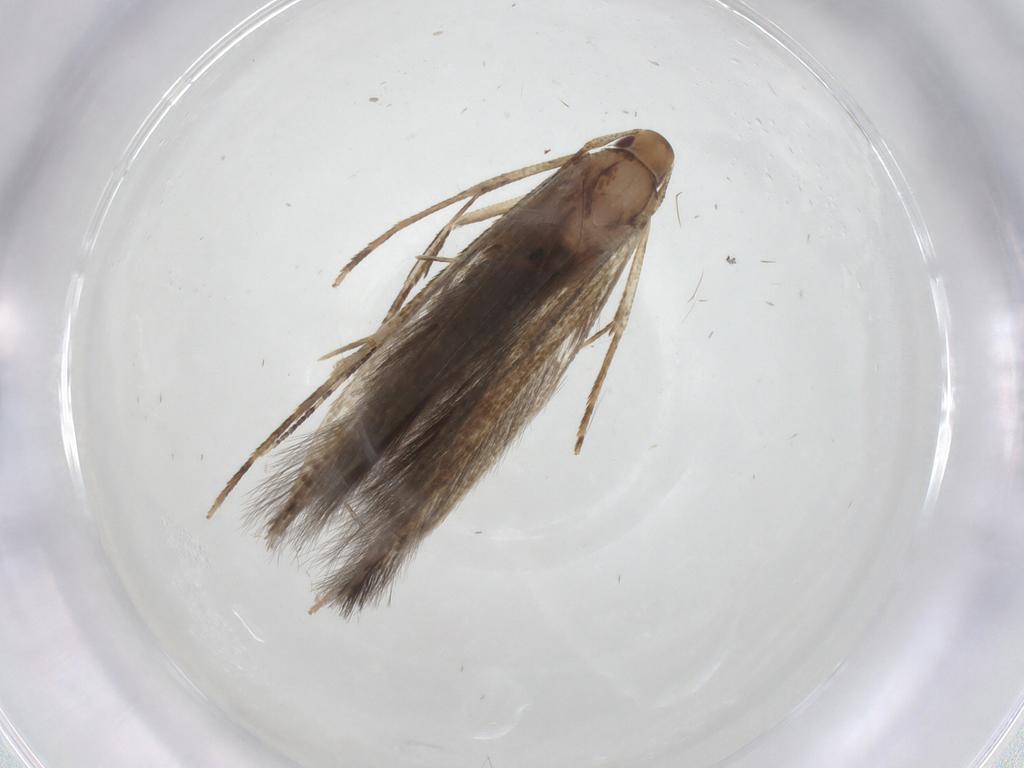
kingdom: Animalia
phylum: Arthropoda
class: Insecta
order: Lepidoptera
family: Cosmopterigidae
